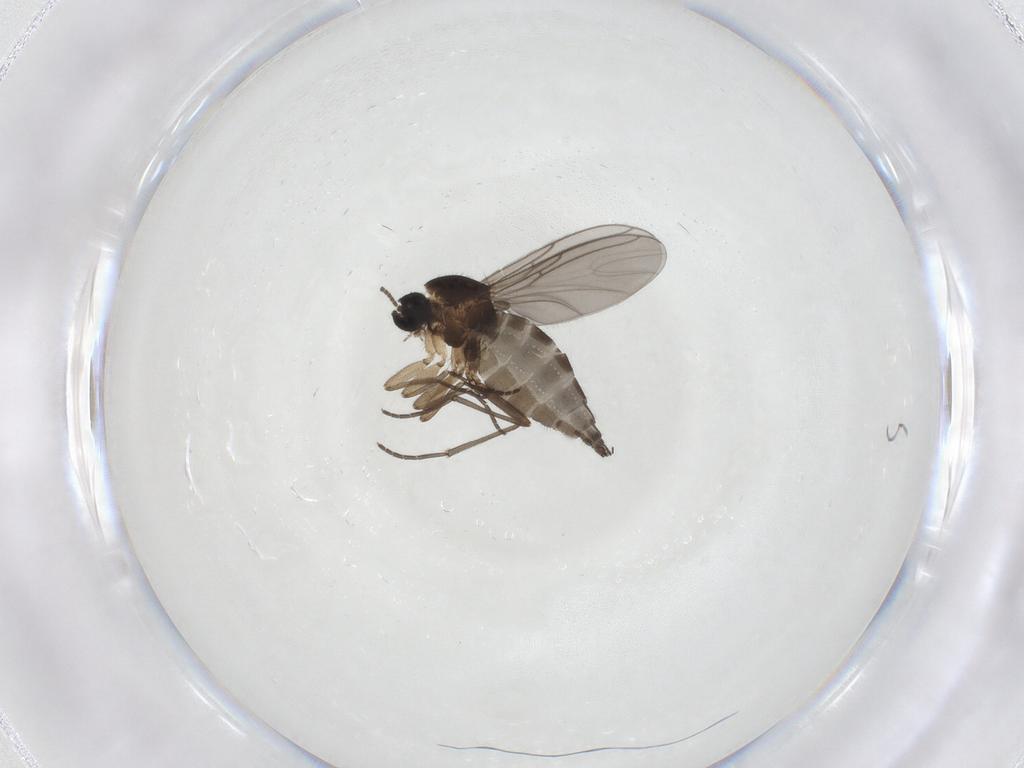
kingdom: Animalia
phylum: Arthropoda
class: Insecta
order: Diptera
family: Sciaridae
